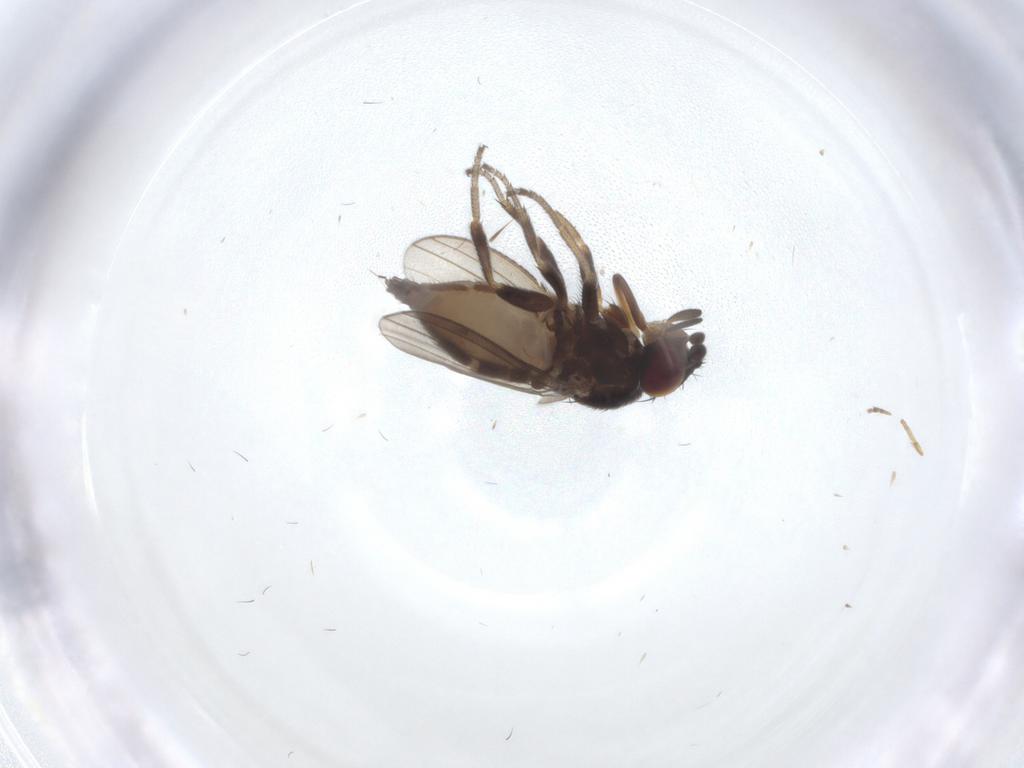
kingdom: Animalia
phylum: Arthropoda
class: Insecta
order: Diptera
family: Milichiidae
